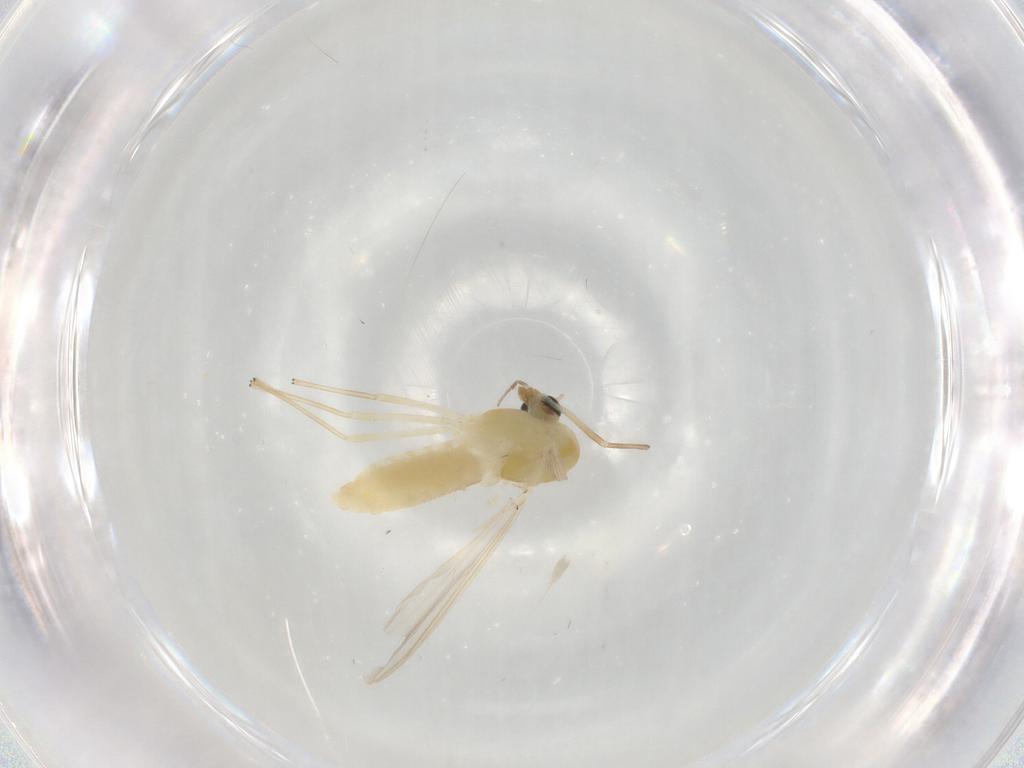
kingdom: Animalia
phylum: Arthropoda
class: Insecta
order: Diptera
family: Chironomidae
